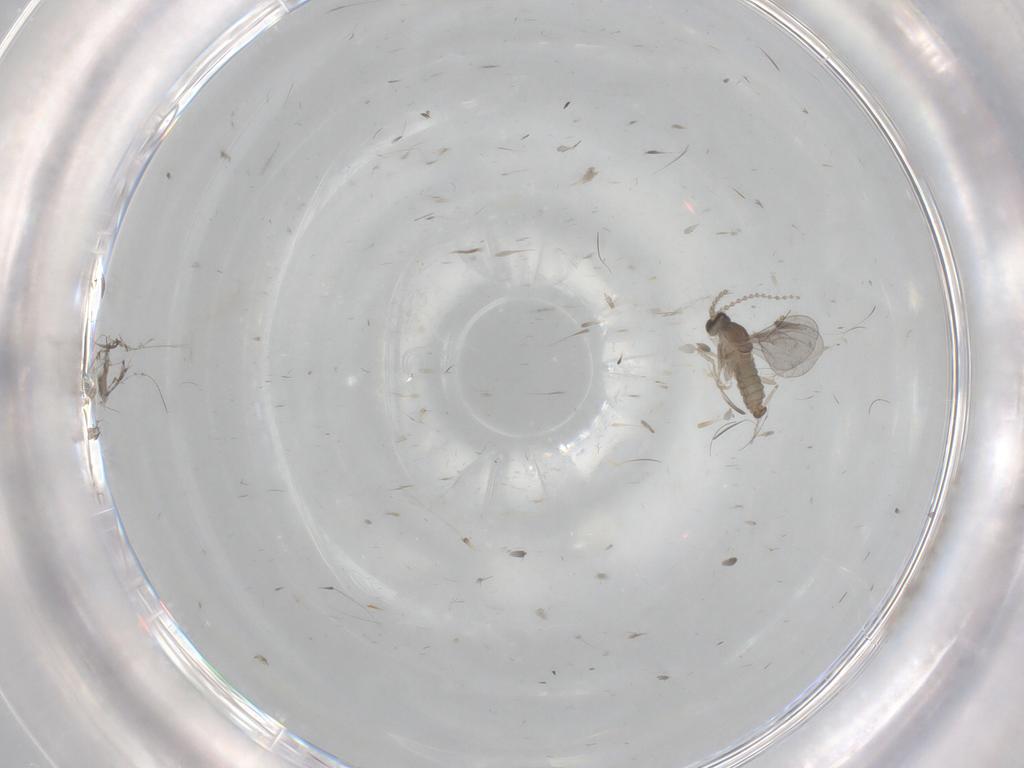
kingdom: Animalia
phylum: Arthropoda
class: Insecta
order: Diptera
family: Cecidomyiidae
